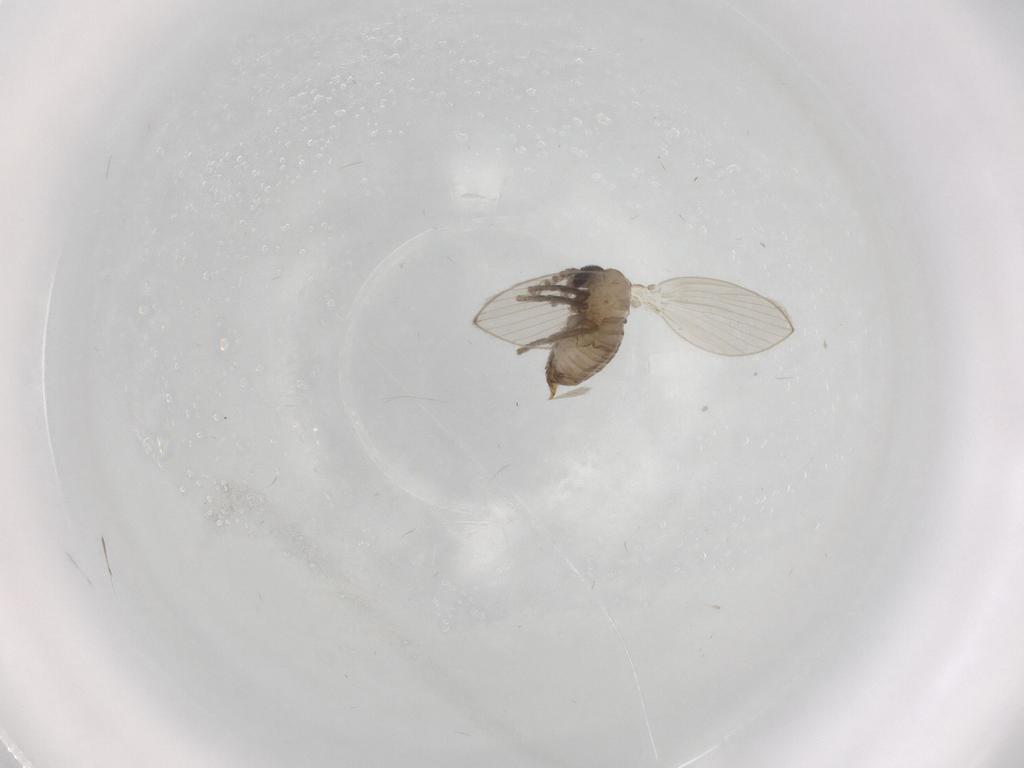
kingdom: Animalia
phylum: Arthropoda
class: Insecta
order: Diptera
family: Psychodidae
